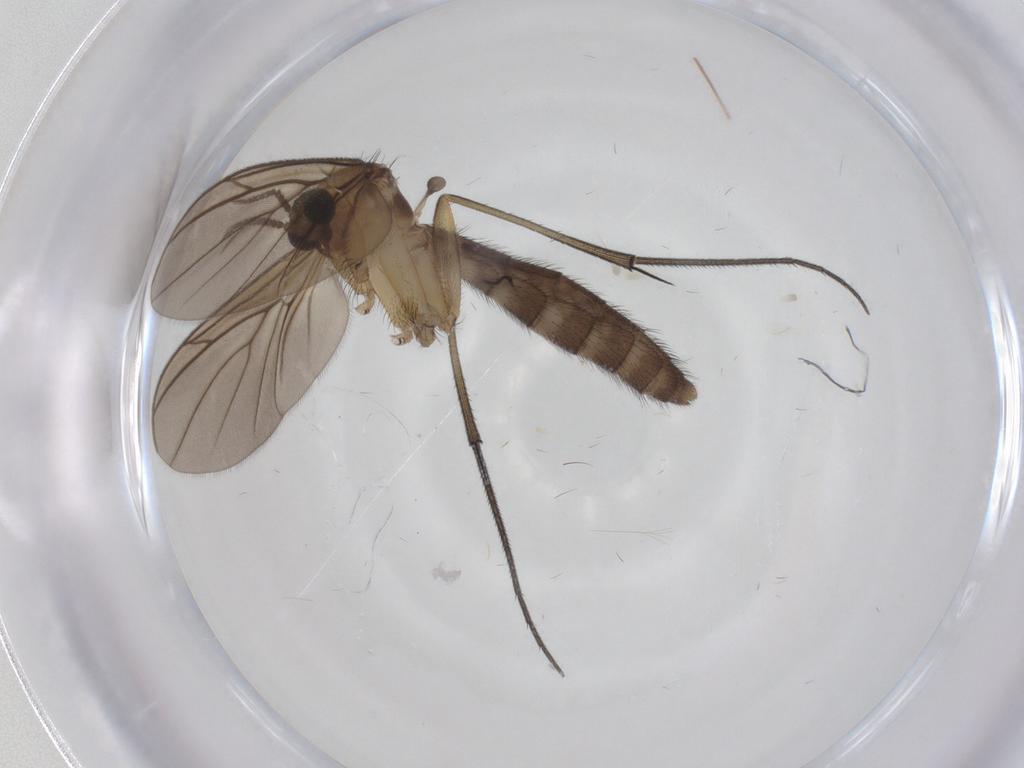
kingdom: Animalia
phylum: Arthropoda
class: Insecta
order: Diptera
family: Keroplatidae
